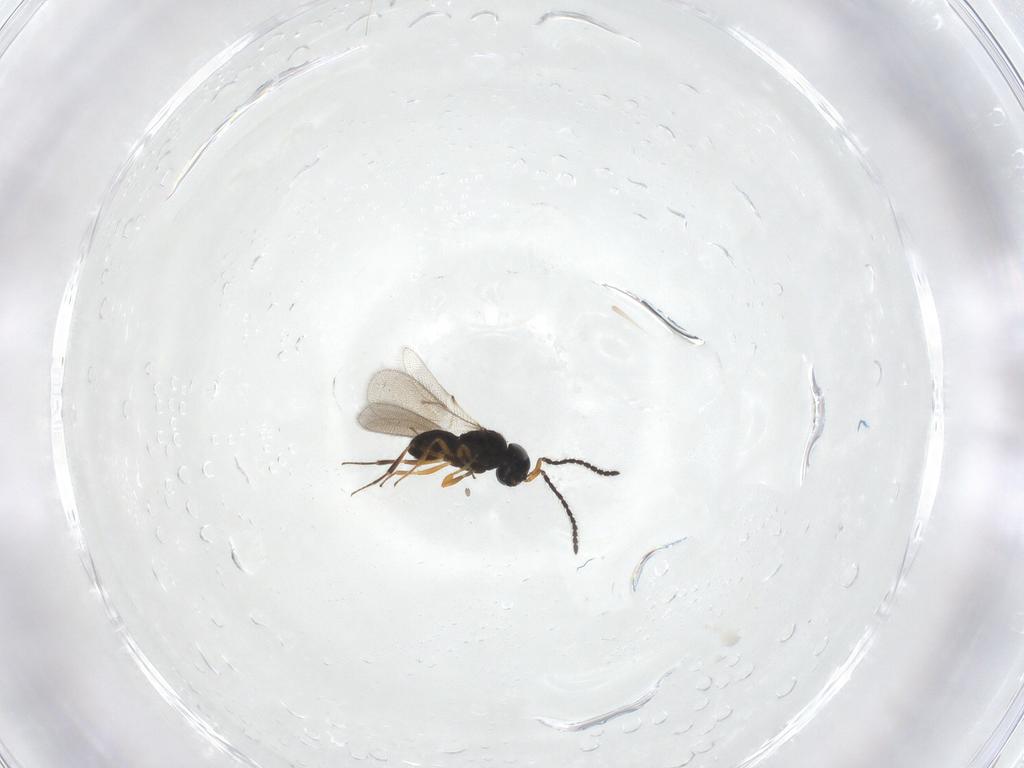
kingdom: Animalia
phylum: Arthropoda
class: Insecta
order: Hymenoptera
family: Scelionidae
